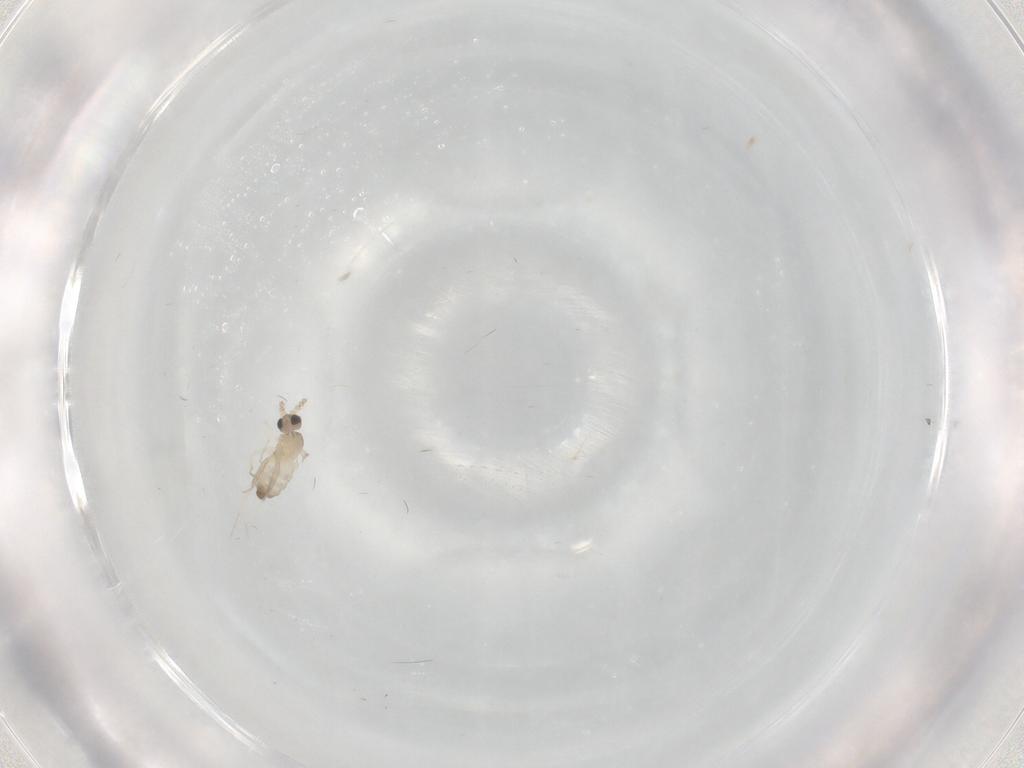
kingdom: Animalia
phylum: Arthropoda
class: Insecta
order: Diptera
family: Cecidomyiidae
